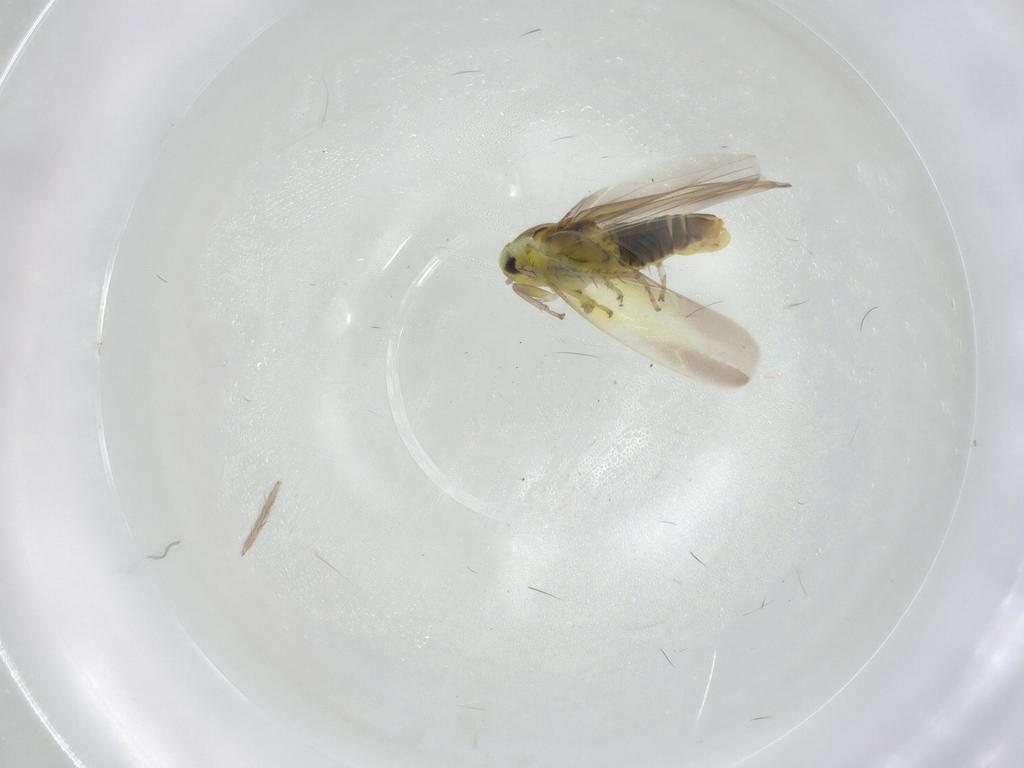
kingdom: Animalia
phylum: Arthropoda
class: Insecta
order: Hemiptera
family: Cicadellidae
